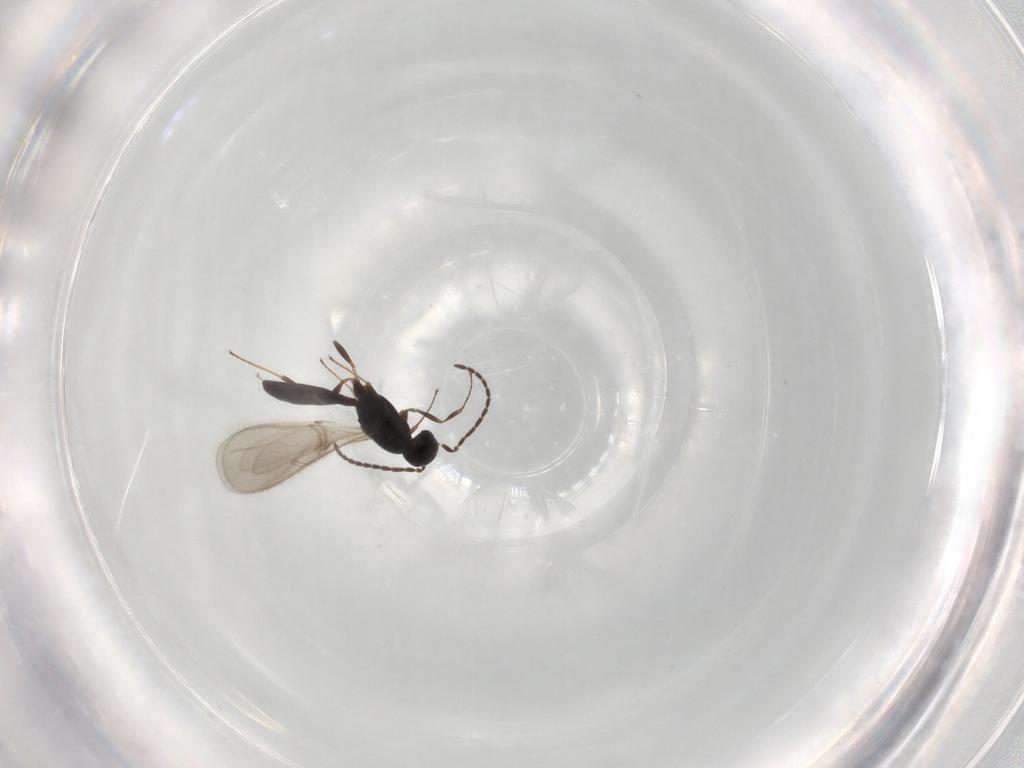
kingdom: Animalia
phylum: Arthropoda
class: Insecta
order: Hymenoptera
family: Scelionidae
